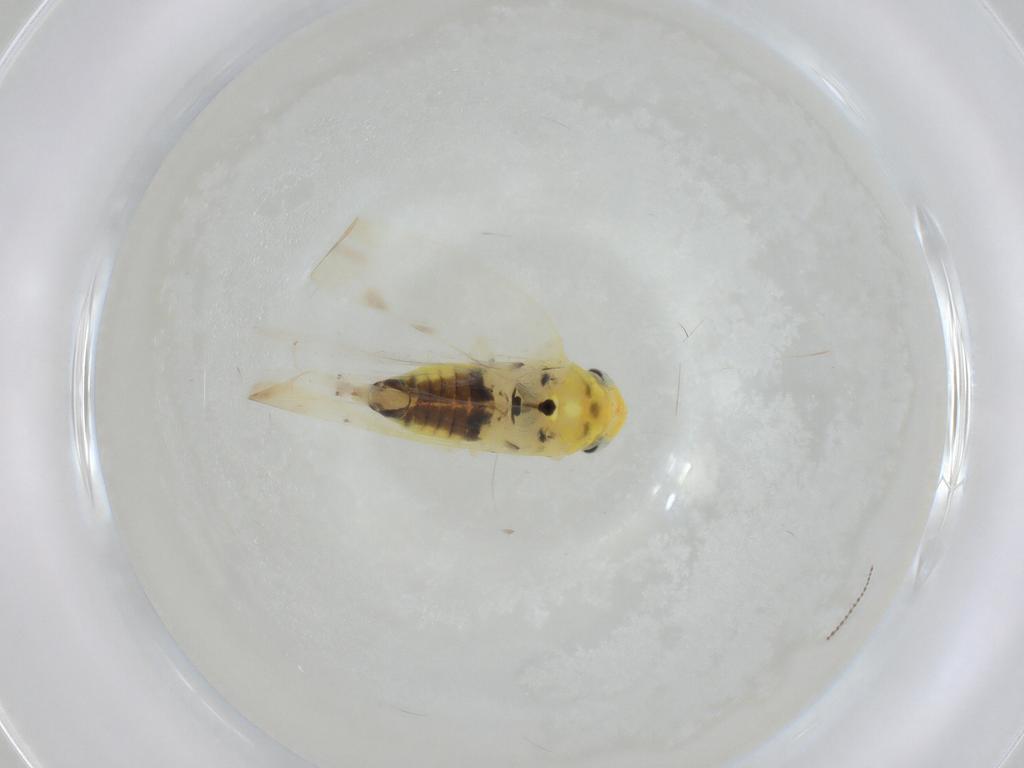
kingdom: Animalia
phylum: Arthropoda
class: Insecta
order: Hemiptera
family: Cicadellidae
